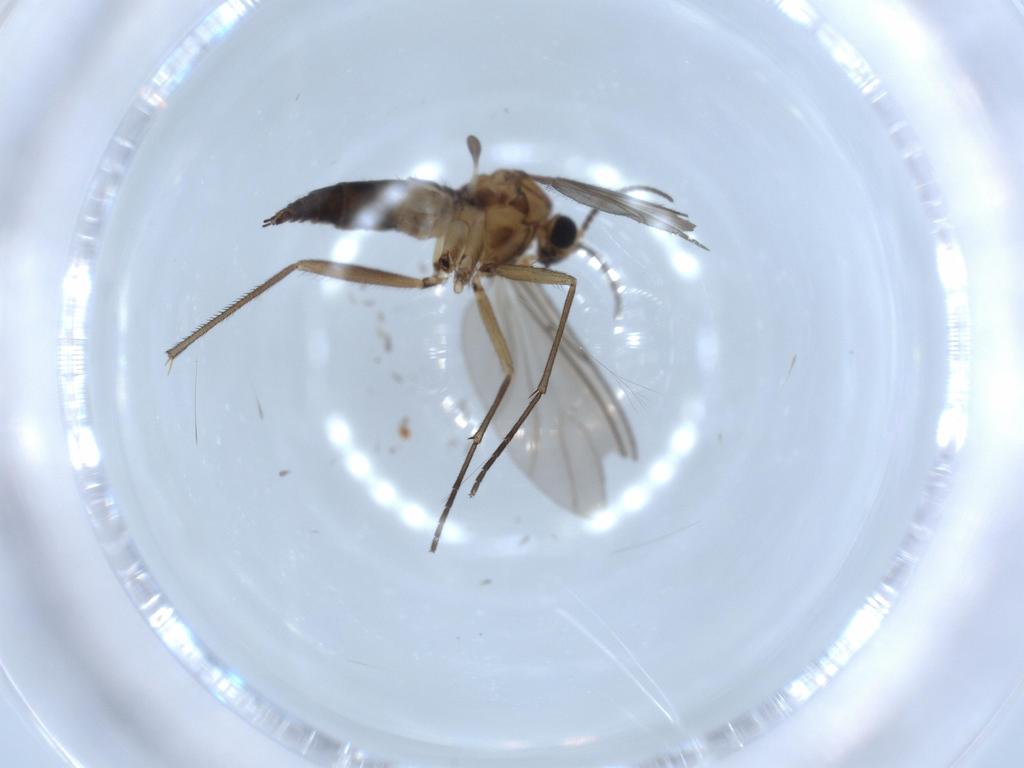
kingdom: Animalia
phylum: Arthropoda
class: Insecta
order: Diptera
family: Sciaridae
